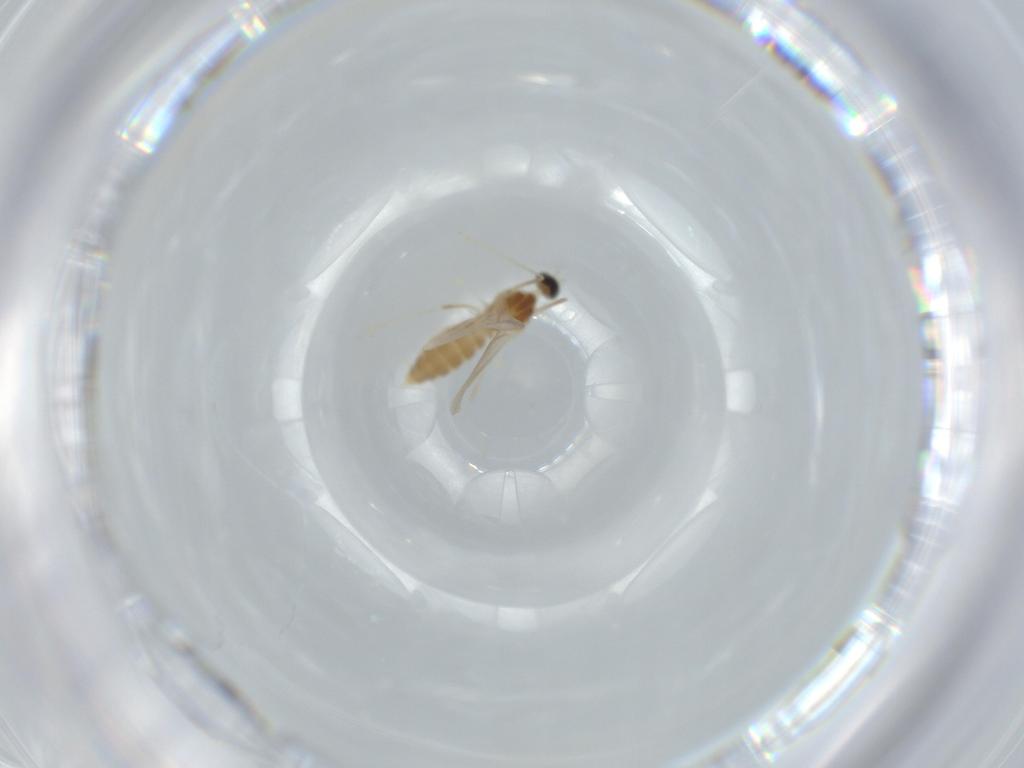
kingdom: Animalia
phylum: Arthropoda
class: Insecta
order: Diptera
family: Cecidomyiidae
